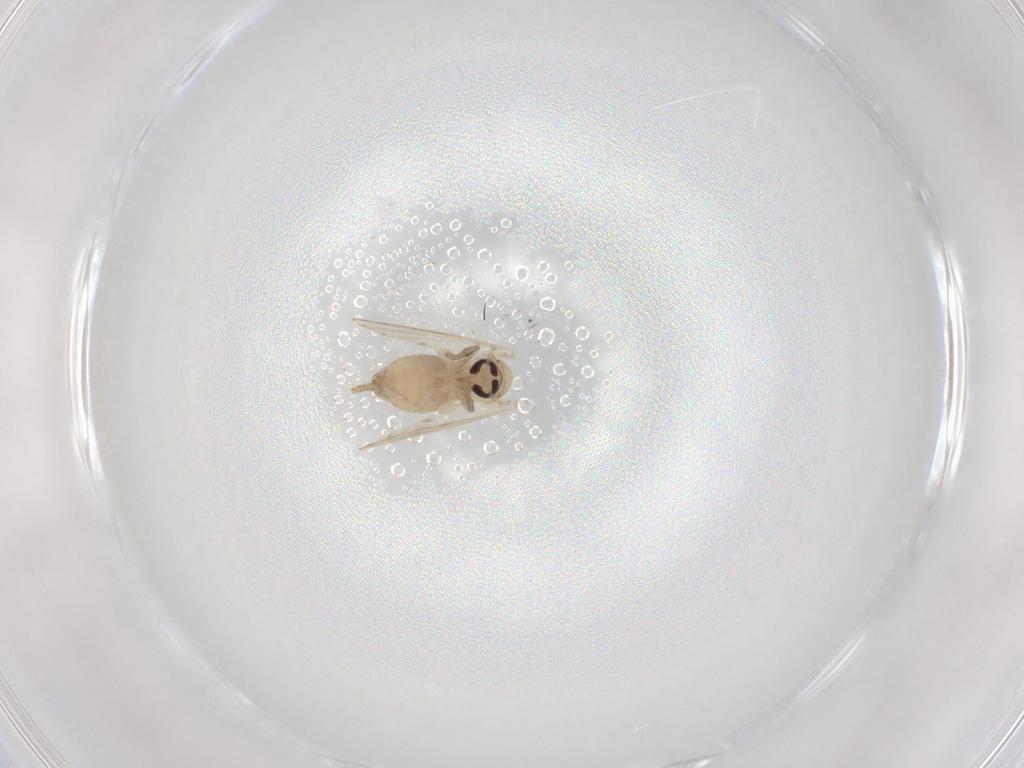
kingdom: Animalia
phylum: Arthropoda
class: Insecta
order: Diptera
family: Psychodidae
